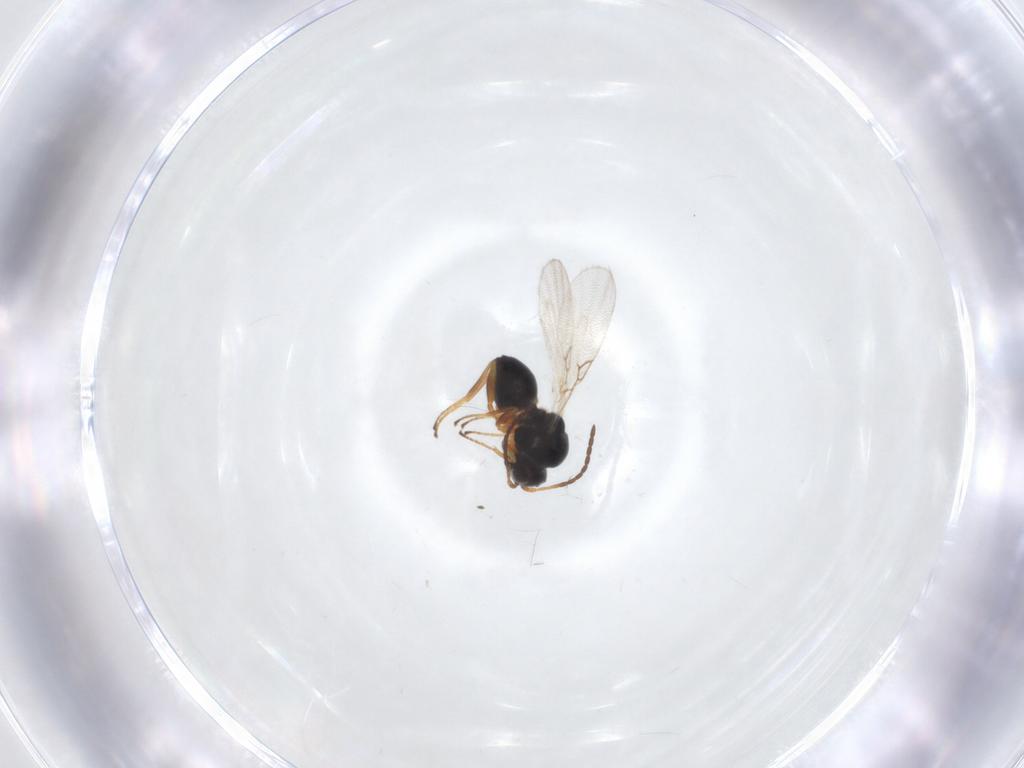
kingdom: Animalia
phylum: Arthropoda
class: Insecta
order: Hymenoptera
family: Figitidae
